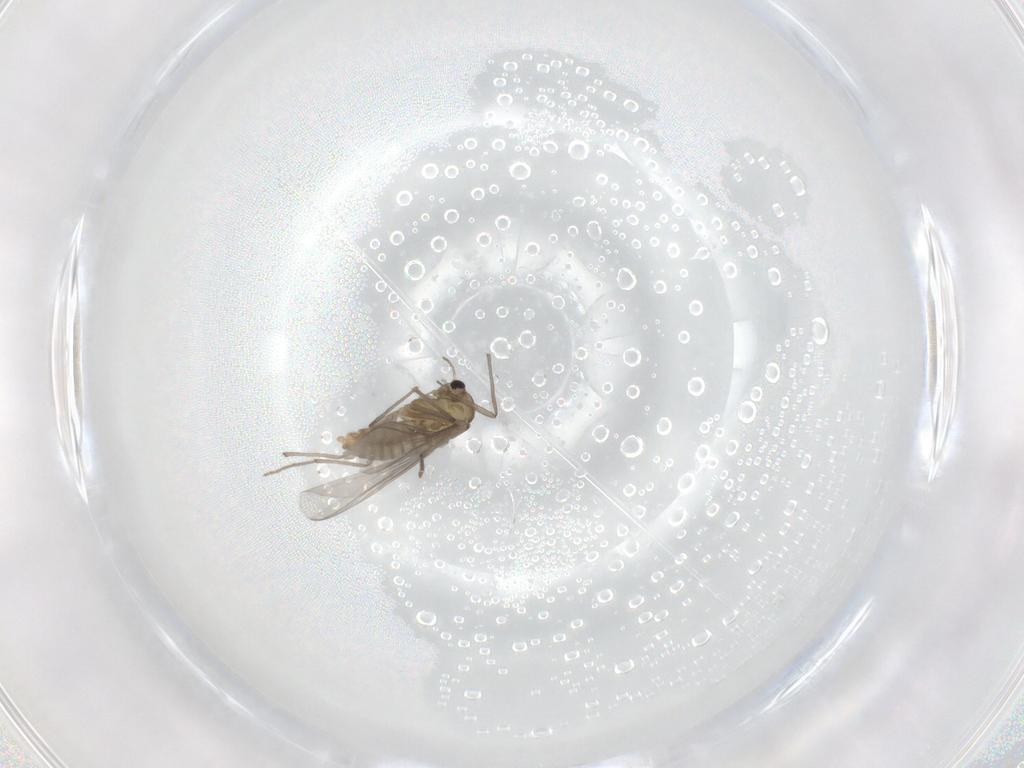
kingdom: Animalia
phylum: Arthropoda
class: Insecta
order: Diptera
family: Chironomidae
